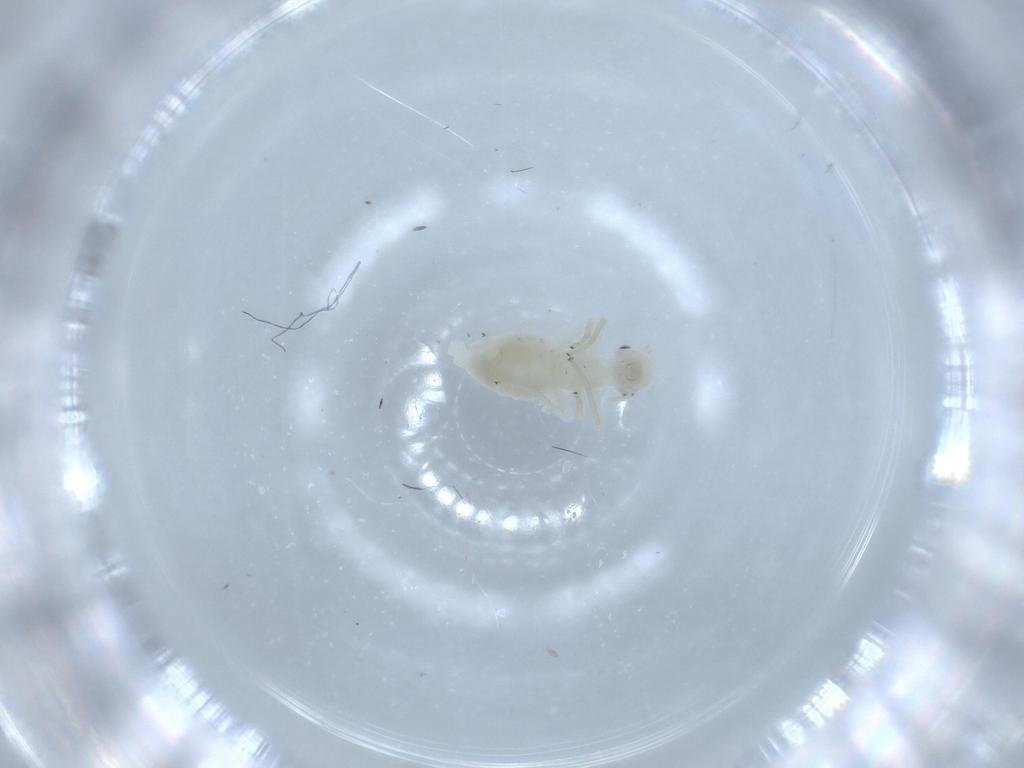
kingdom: Animalia
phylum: Arthropoda
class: Insecta
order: Psocodea
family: Caeciliusidae
